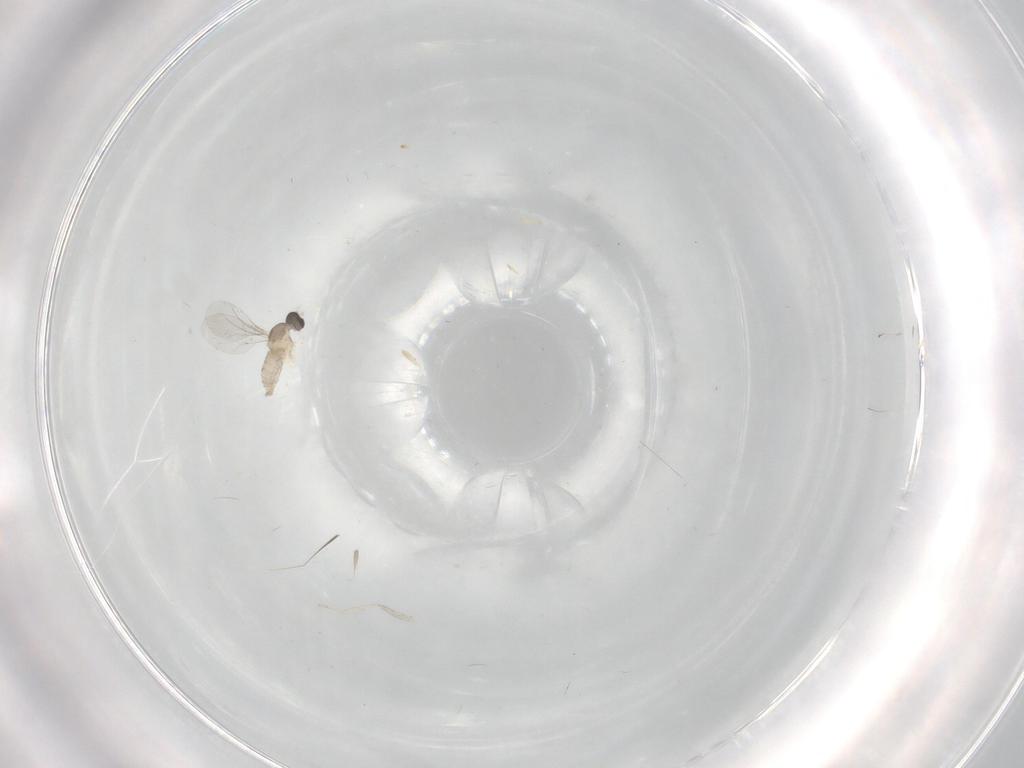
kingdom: Animalia
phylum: Arthropoda
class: Insecta
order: Diptera
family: Cecidomyiidae
